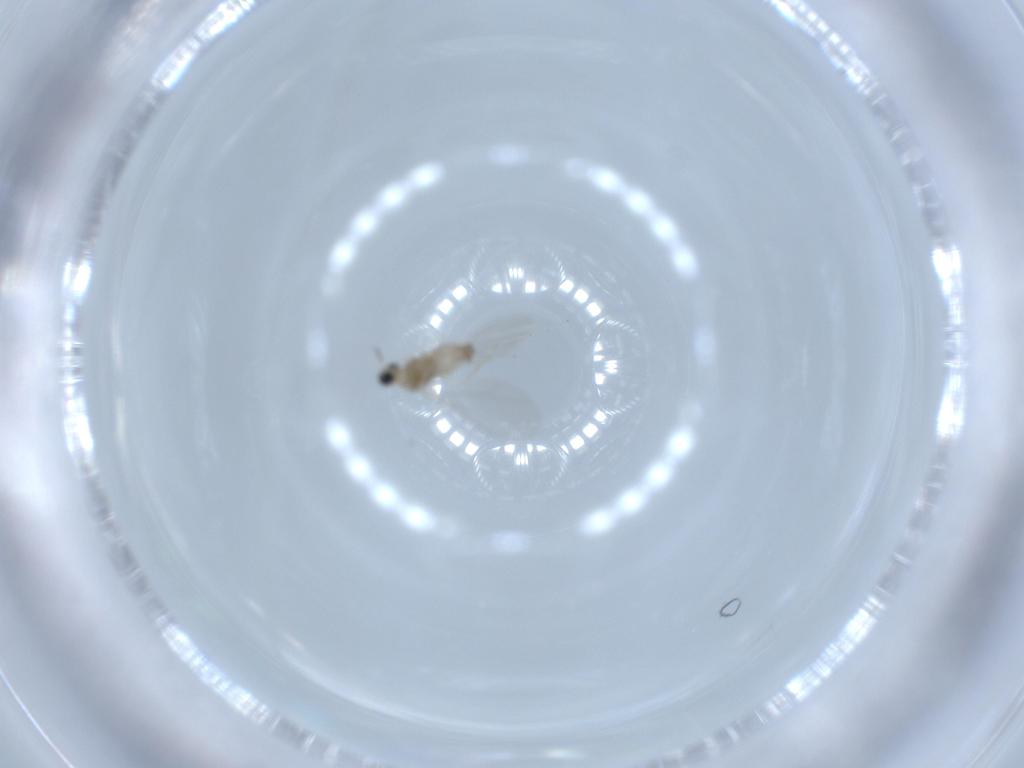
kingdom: Animalia
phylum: Arthropoda
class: Insecta
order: Diptera
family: Cecidomyiidae
